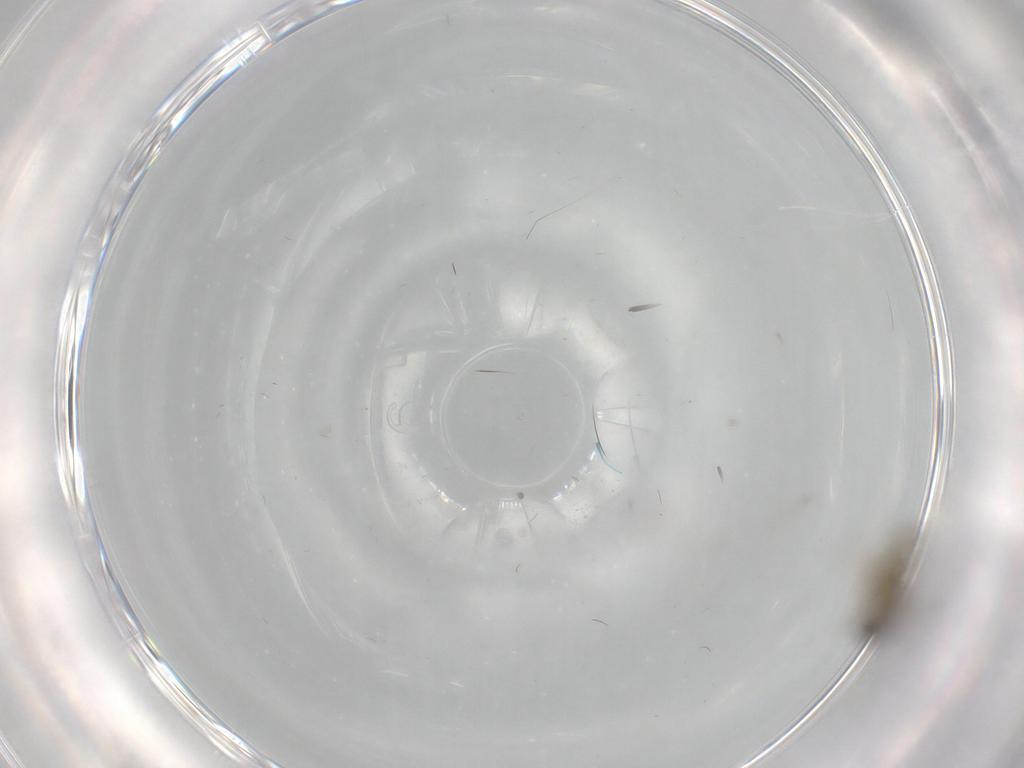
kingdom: Animalia
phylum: Arthropoda
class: Insecta
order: Diptera
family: Cecidomyiidae
